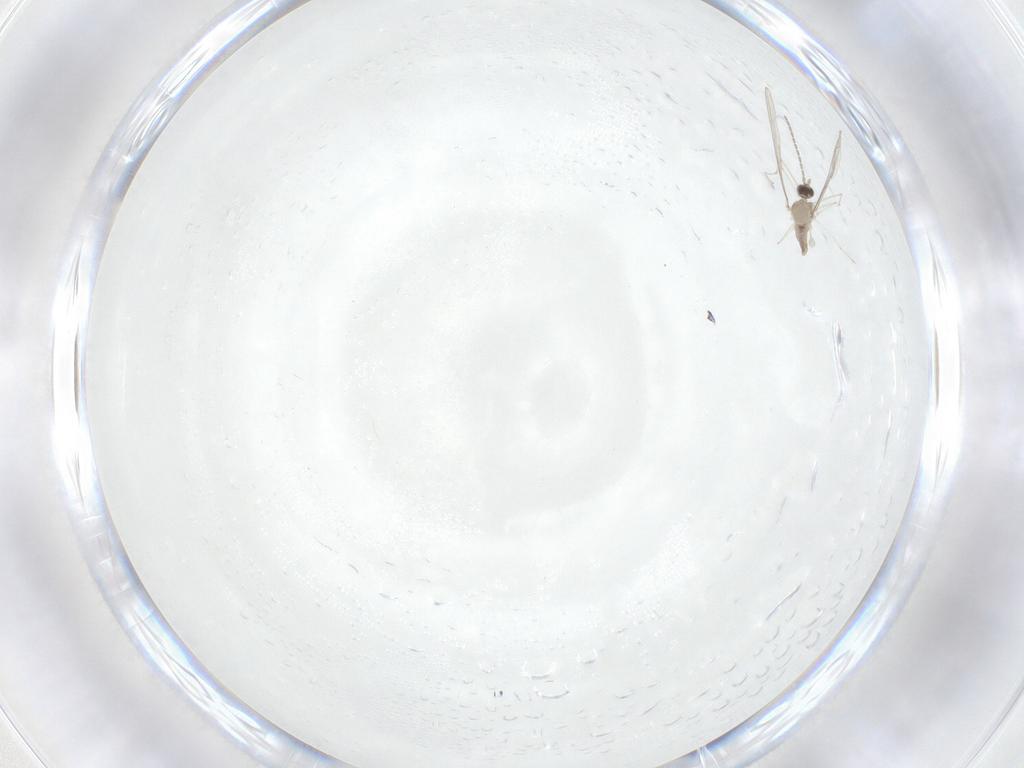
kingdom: Animalia
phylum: Arthropoda
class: Insecta
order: Diptera
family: Cecidomyiidae
